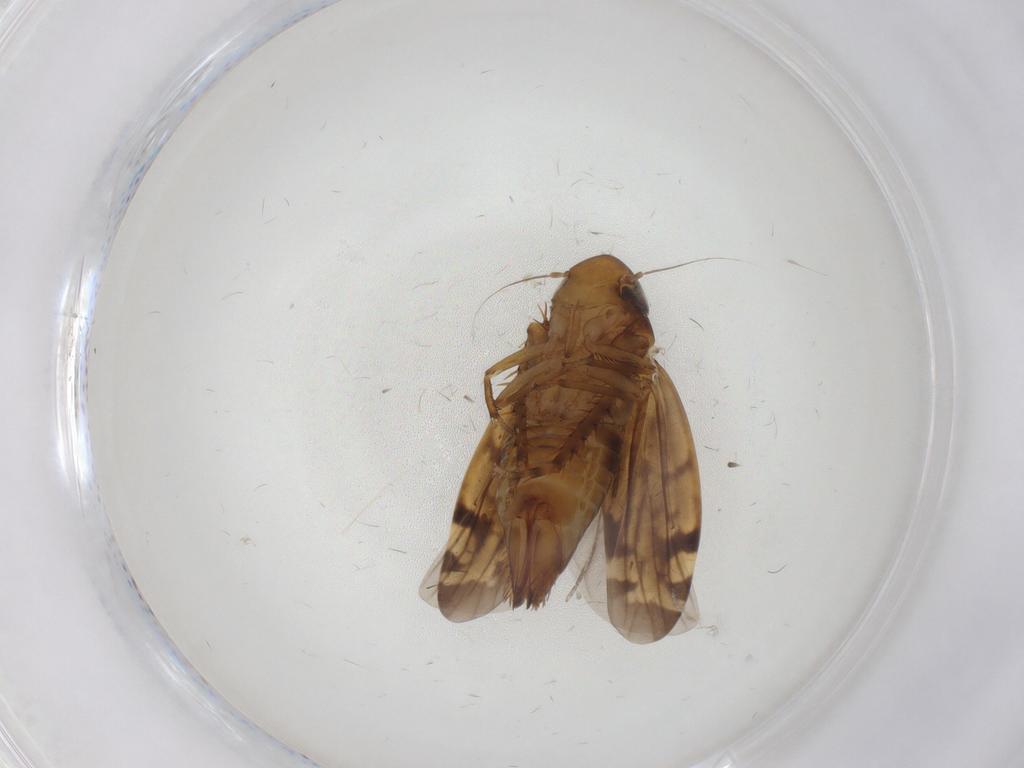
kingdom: Animalia
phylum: Arthropoda
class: Insecta
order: Hemiptera
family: Cicadellidae
